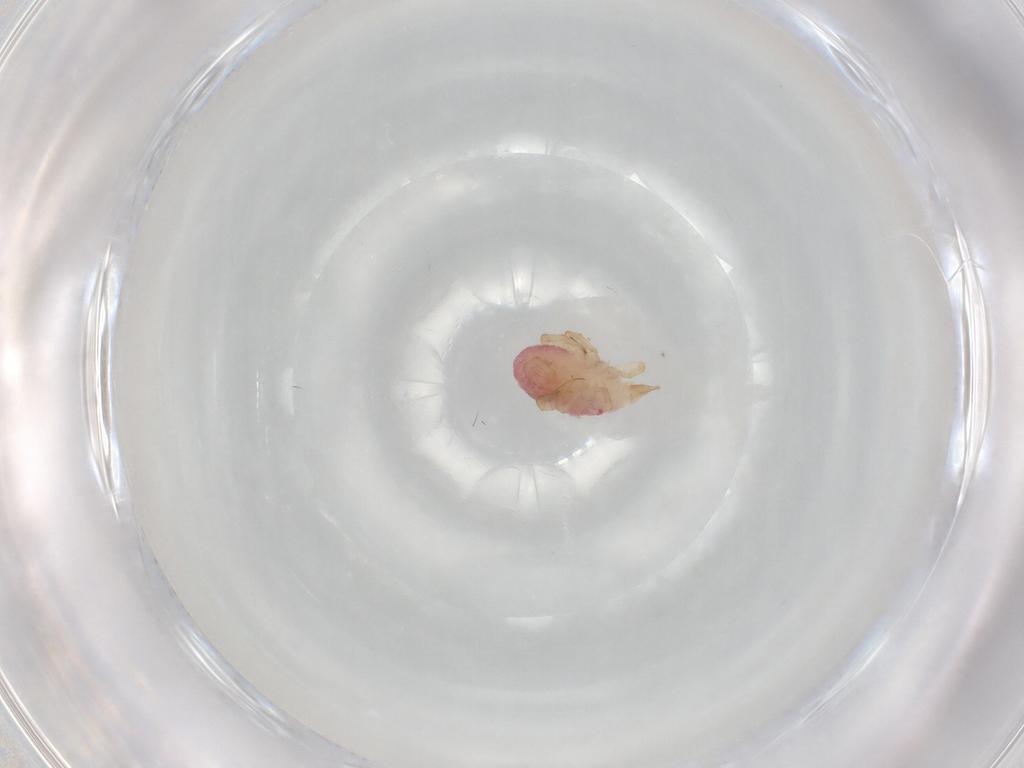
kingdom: Animalia
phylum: Arthropoda
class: Arachnida
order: Trombidiformes
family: Bdellidae
